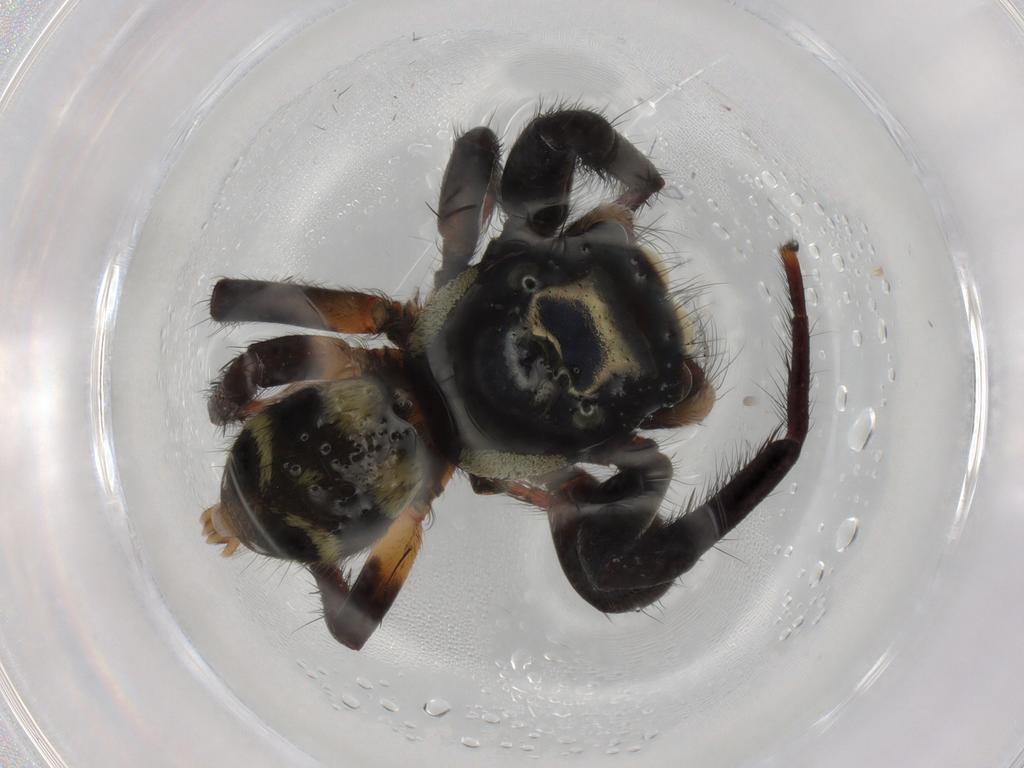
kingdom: Animalia
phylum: Arthropoda
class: Arachnida
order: Araneae
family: Salticidae
